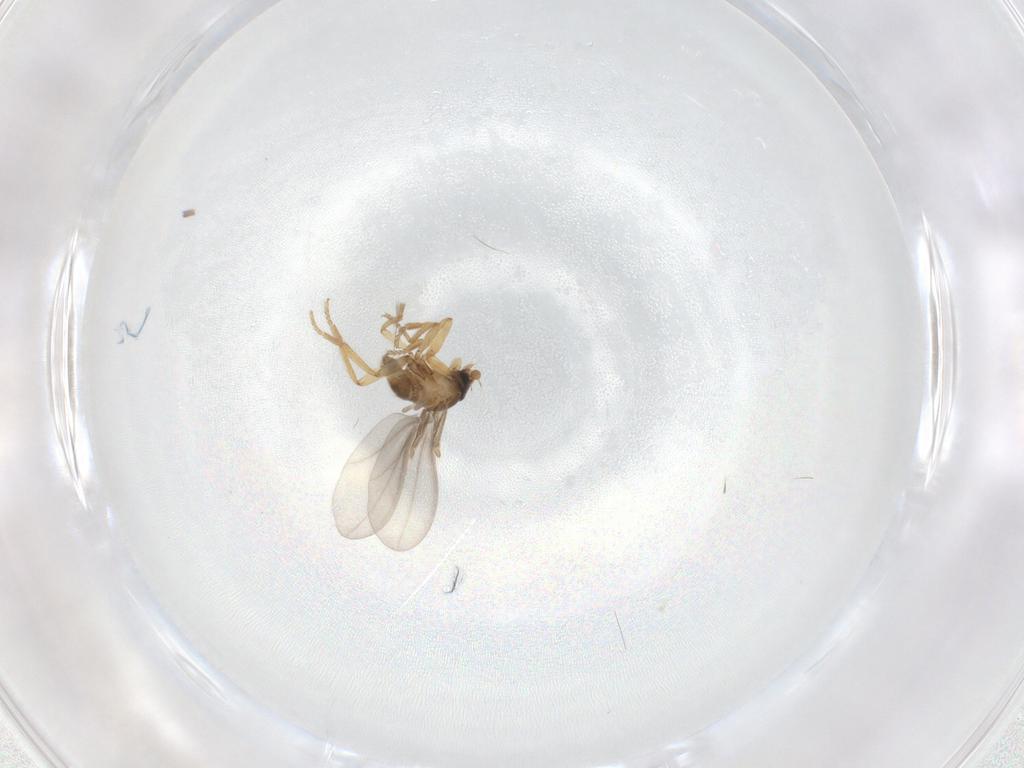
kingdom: Animalia
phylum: Arthropoda
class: Insecta
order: Diptera
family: Phoridae
